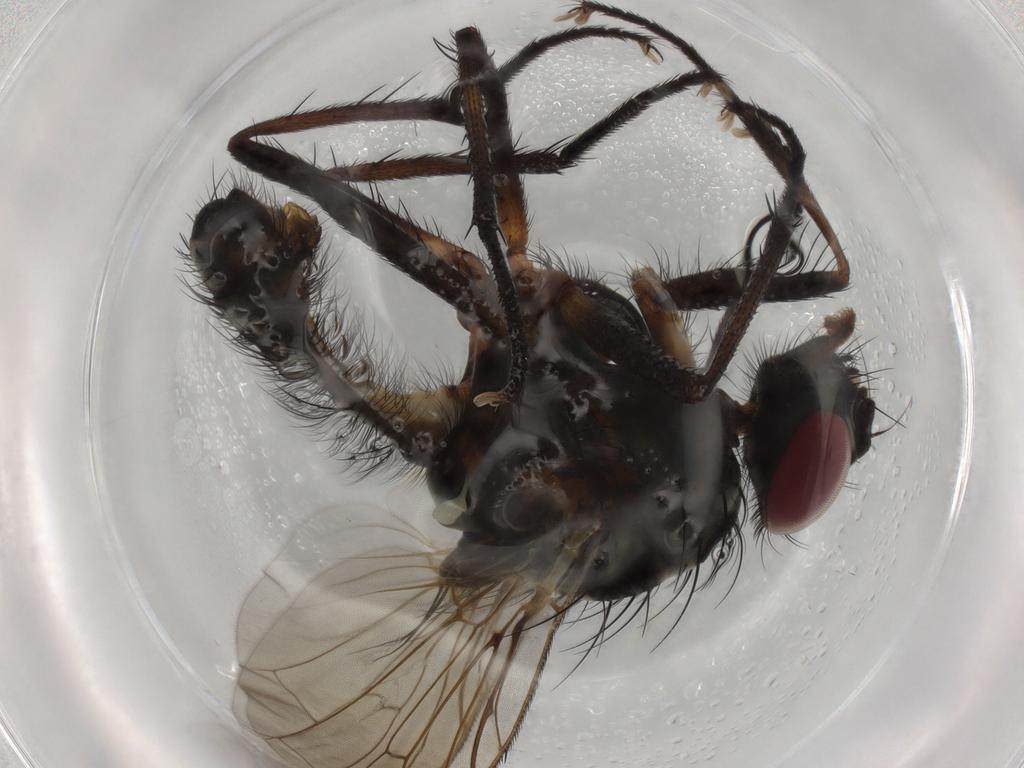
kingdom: Animalia
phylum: Arthropoda
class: Insecta
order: Diptera
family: Anthomyiidae
